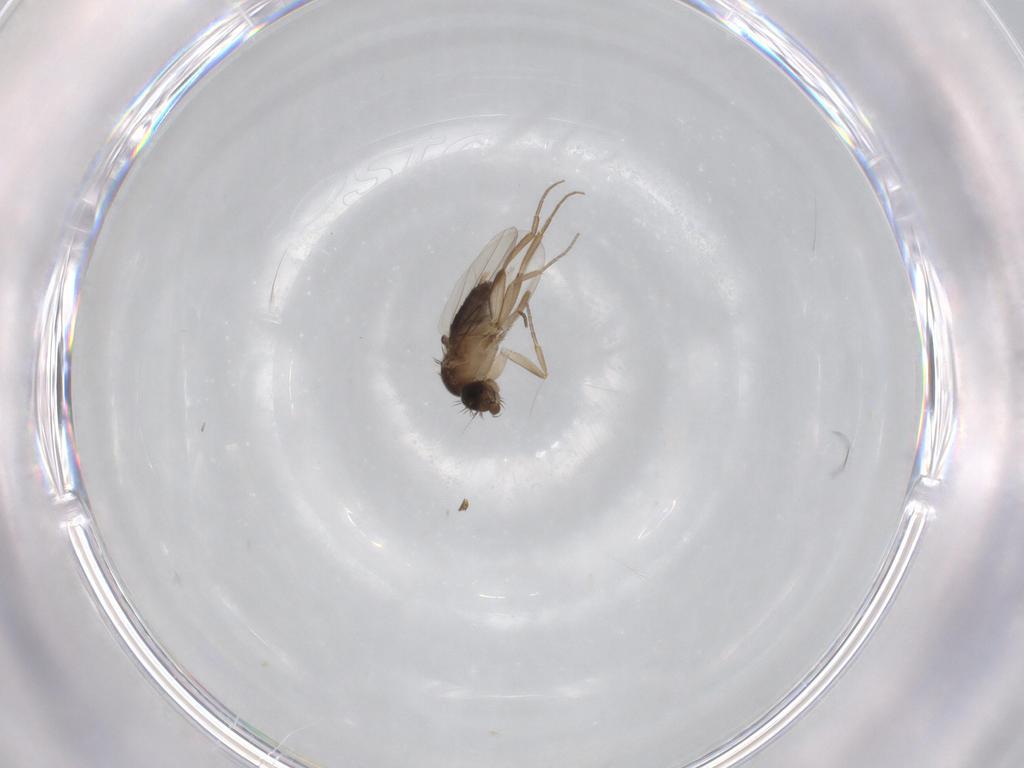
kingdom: Animalia
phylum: Arthropoda
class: Insecta
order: Diptera
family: Phoridae
